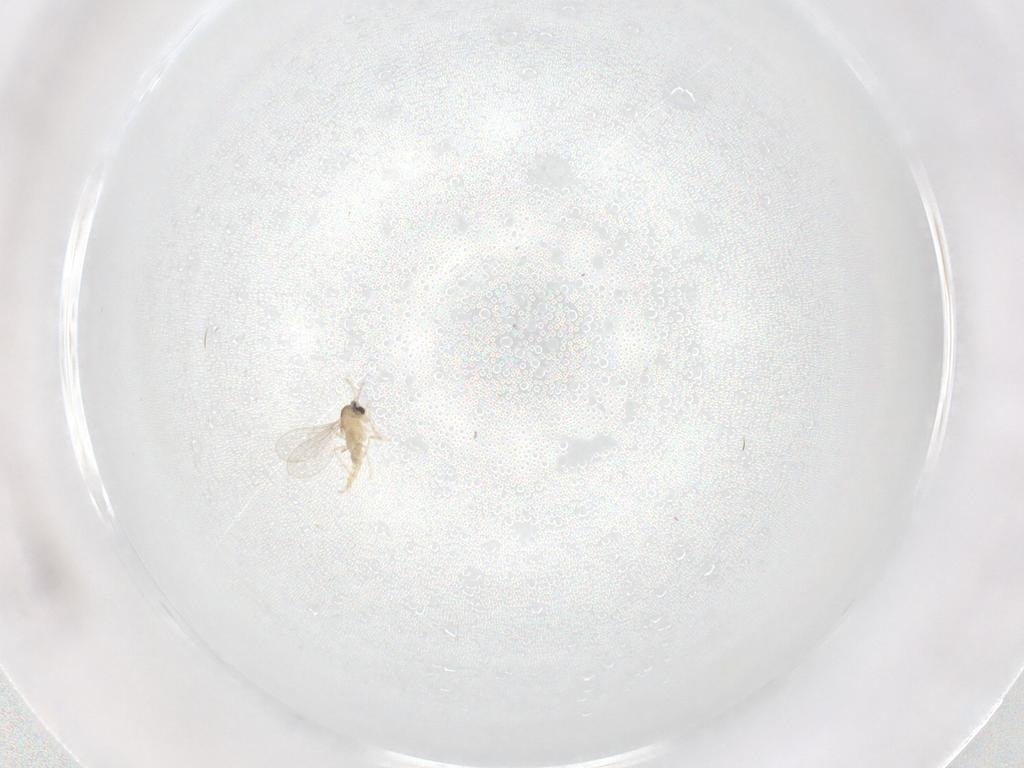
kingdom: Animalia
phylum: Arthropoda
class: Insecta
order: Diptera
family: Cecidomyiidae
